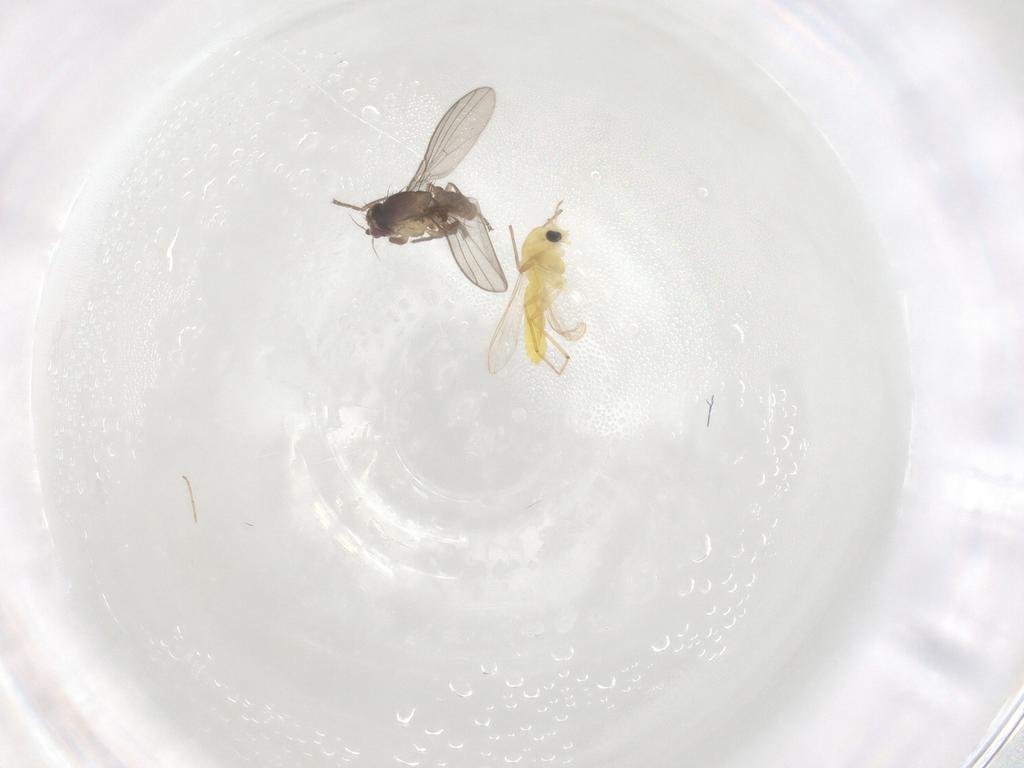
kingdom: Animalia
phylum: Arthropoda
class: Insecta
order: Diptera
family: Agromyzidae
